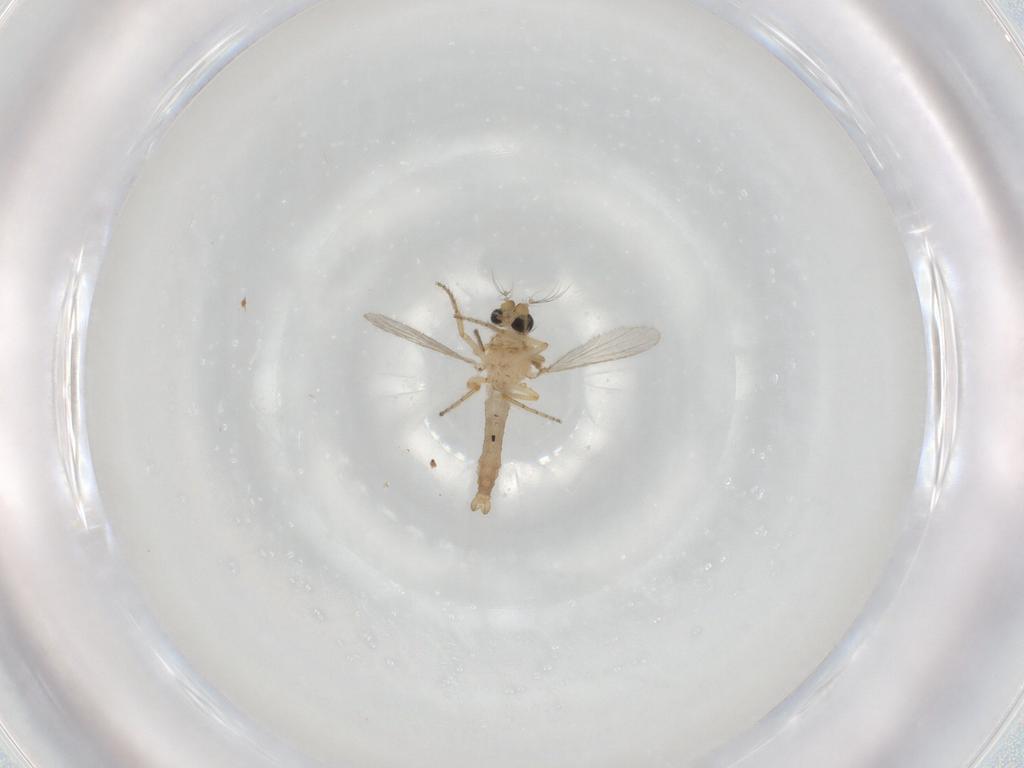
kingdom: Animalia
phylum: Arthropoda
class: Insecta
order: Diptera
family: Ceratopogonidae
